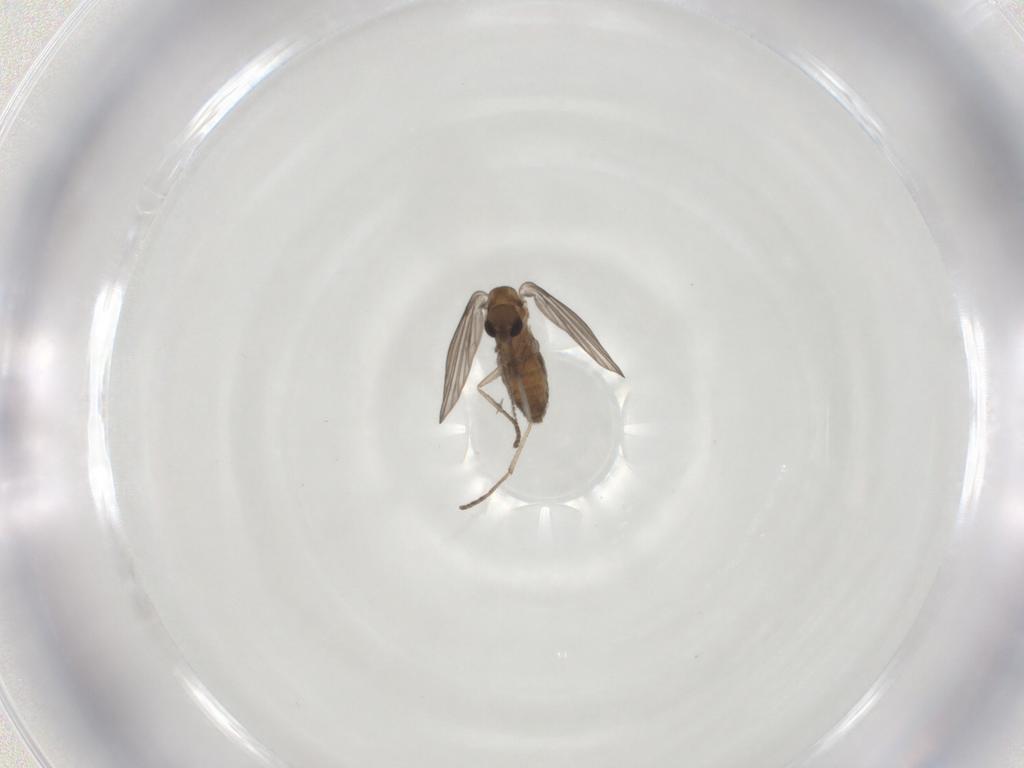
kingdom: Animalia
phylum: Arthropoda
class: Insecta
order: Diptera
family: Psychodidae
